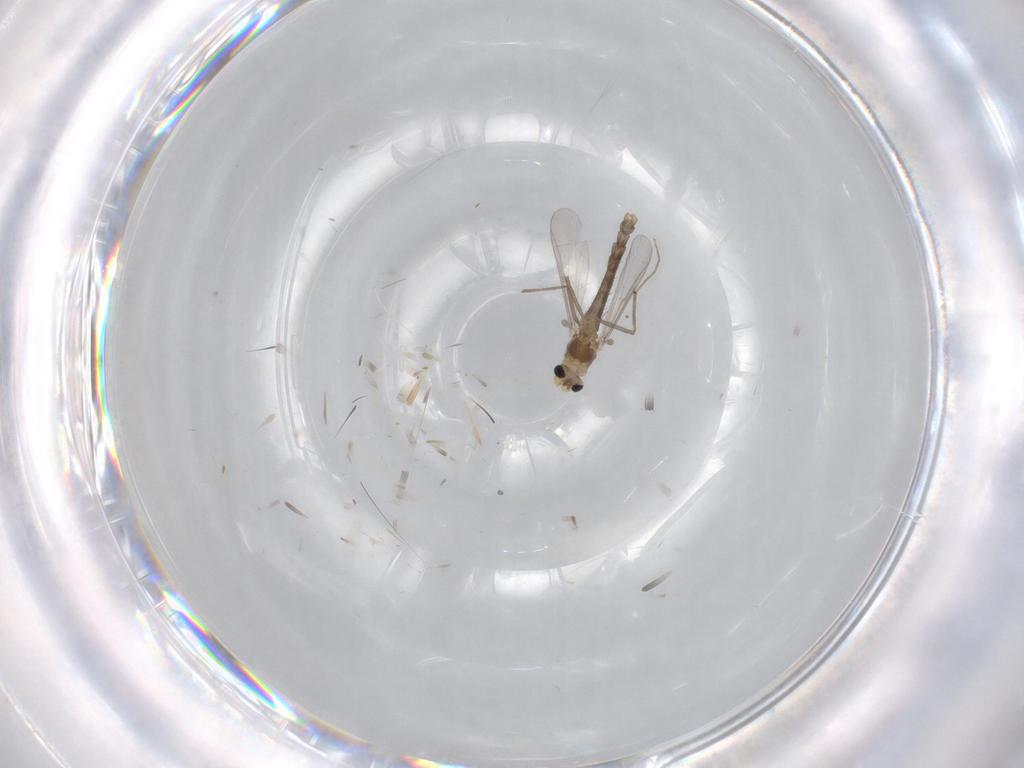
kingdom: Animalia
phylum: Arthropoda
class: Insecta
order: Diptera
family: Chironomidae
